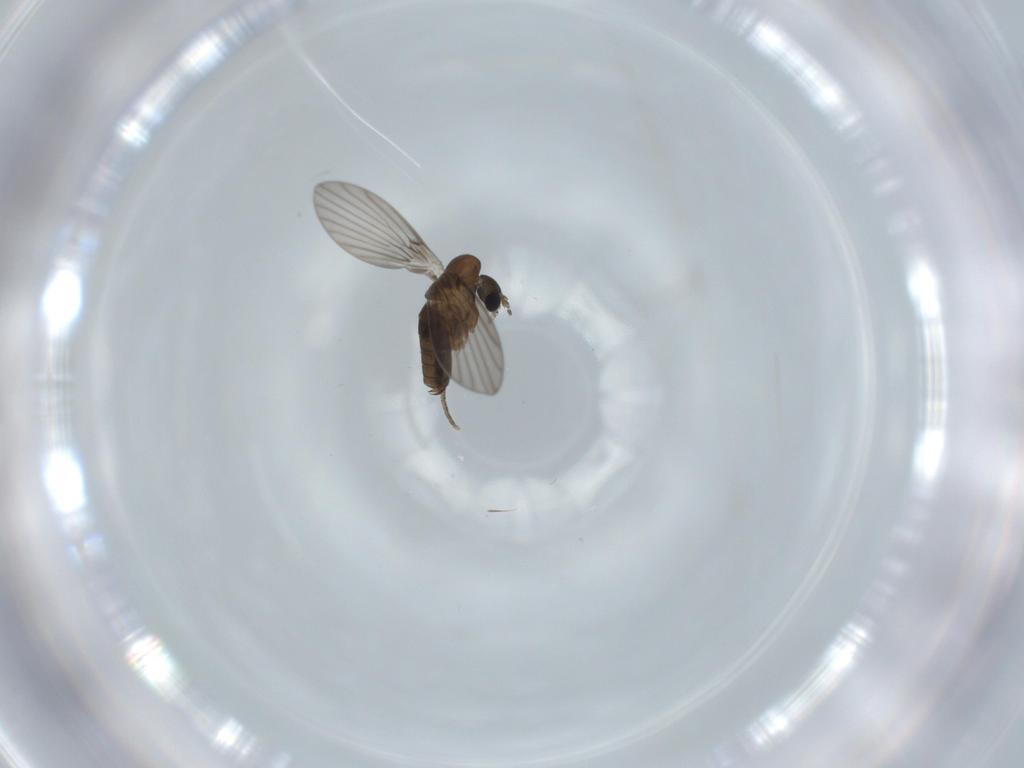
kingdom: Animalia
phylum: Arthropoda
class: Insecta
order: Diptera
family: Psychodidae
